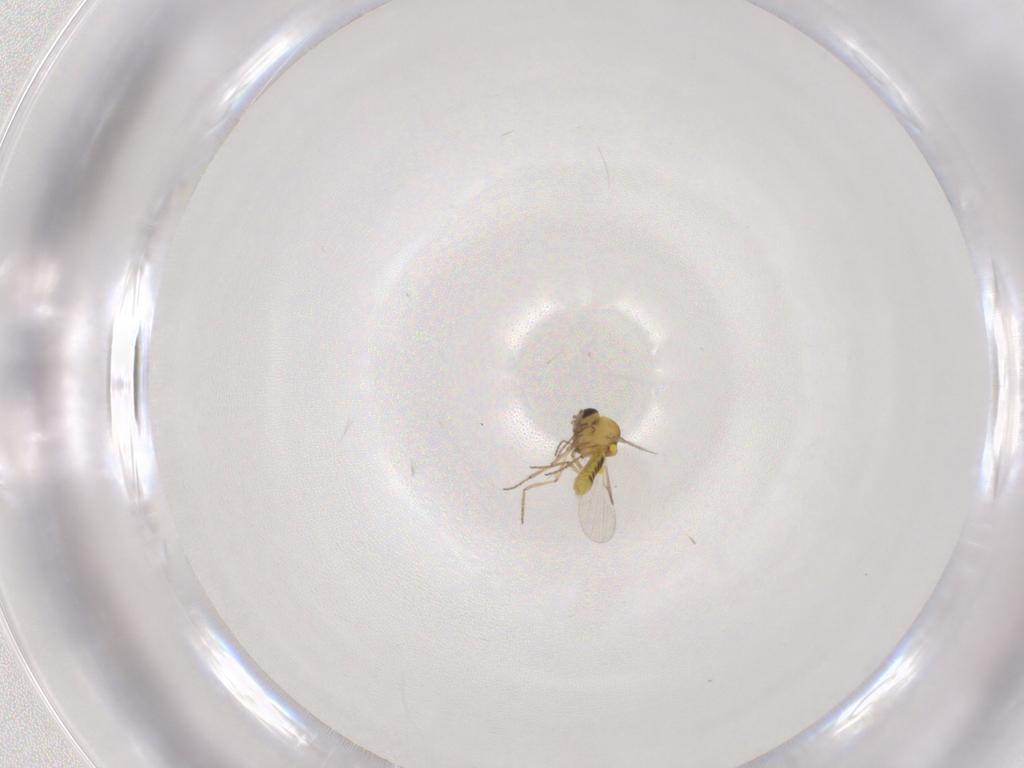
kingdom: Animalia
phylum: Arthropoda
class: Insecta
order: Diptera
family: Ceratopogonidae
